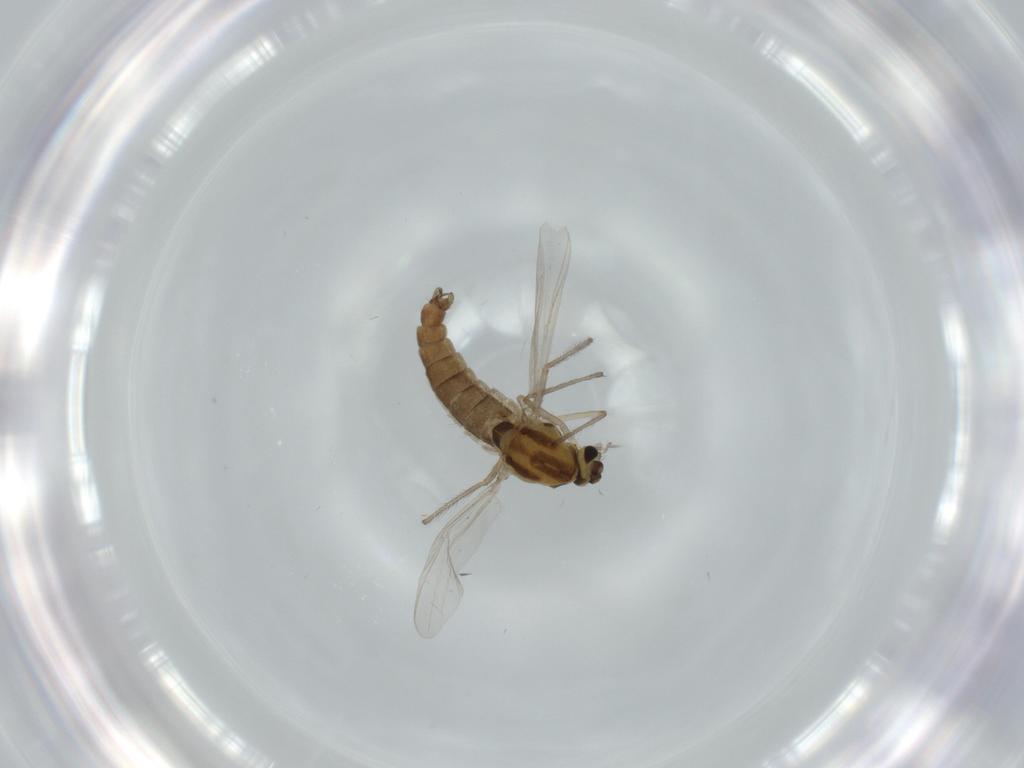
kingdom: Animalia
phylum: Arthropoda
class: Insecta
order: Diptera
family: Chironomidae
